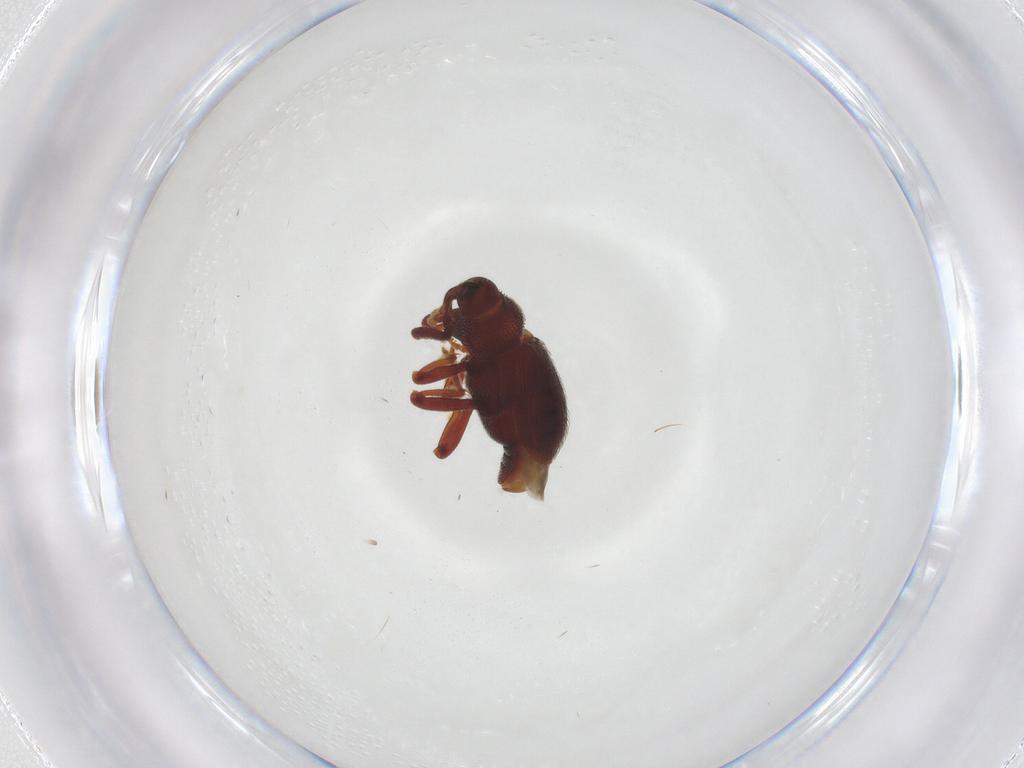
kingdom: Animalia
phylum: Arthropoda
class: Insecta
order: Coleoptera
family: Curculionidae
